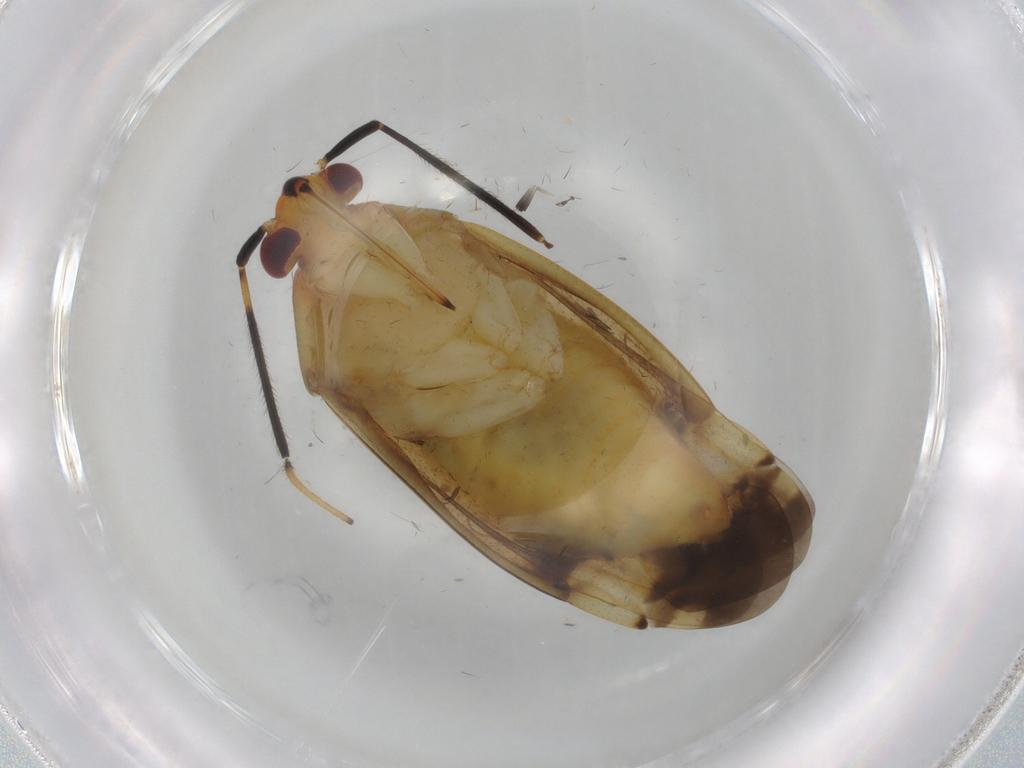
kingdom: Animalia
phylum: Arthropoda
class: Insecta
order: Hemiptera
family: Miridae
